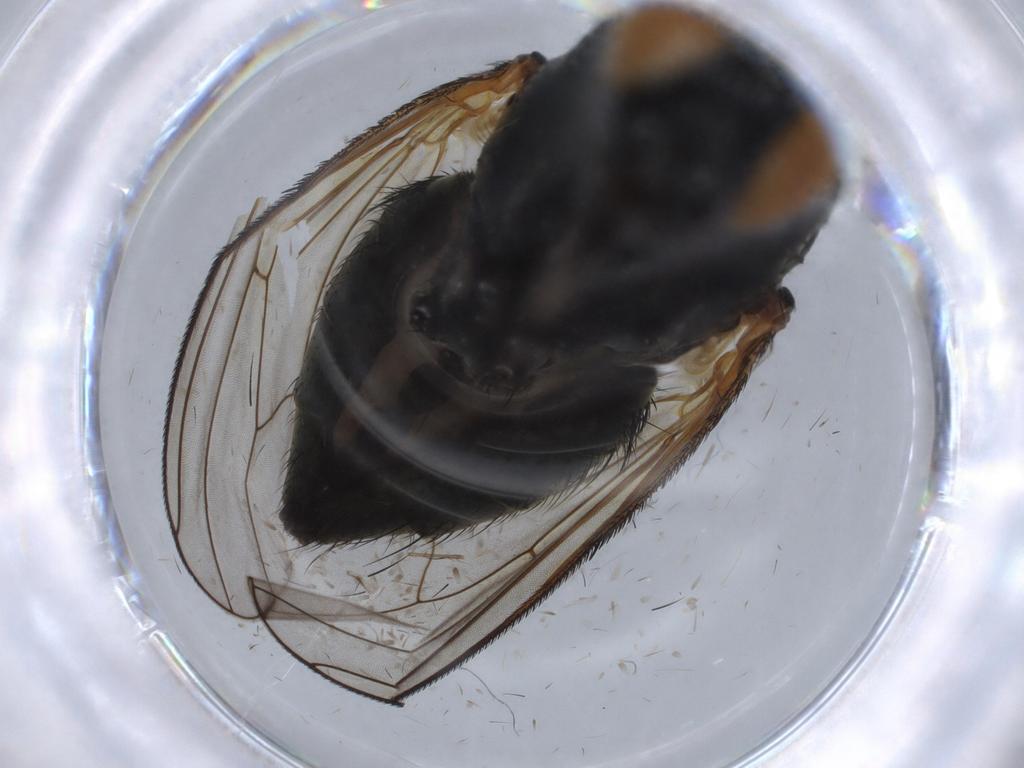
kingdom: Animalia
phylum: Arthropoda
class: Insecta
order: Diptera
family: Anthomyiidae
